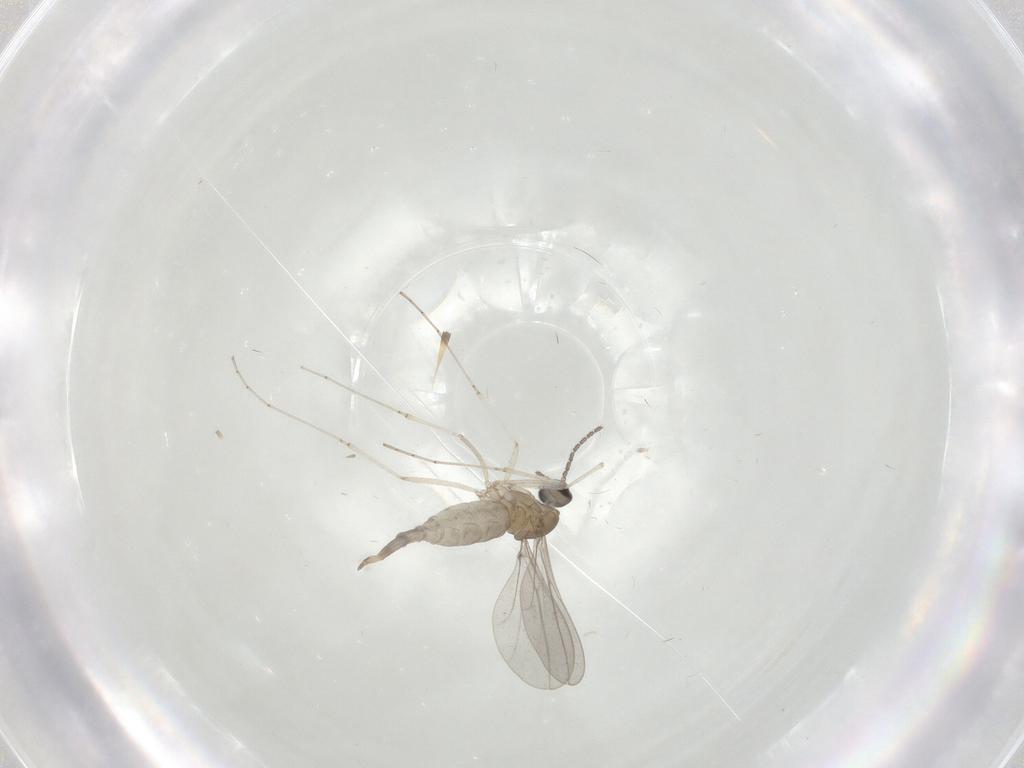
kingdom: Animalia
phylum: Arthropoda
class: Insecta
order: Diptera
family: Cecidomyiidae
